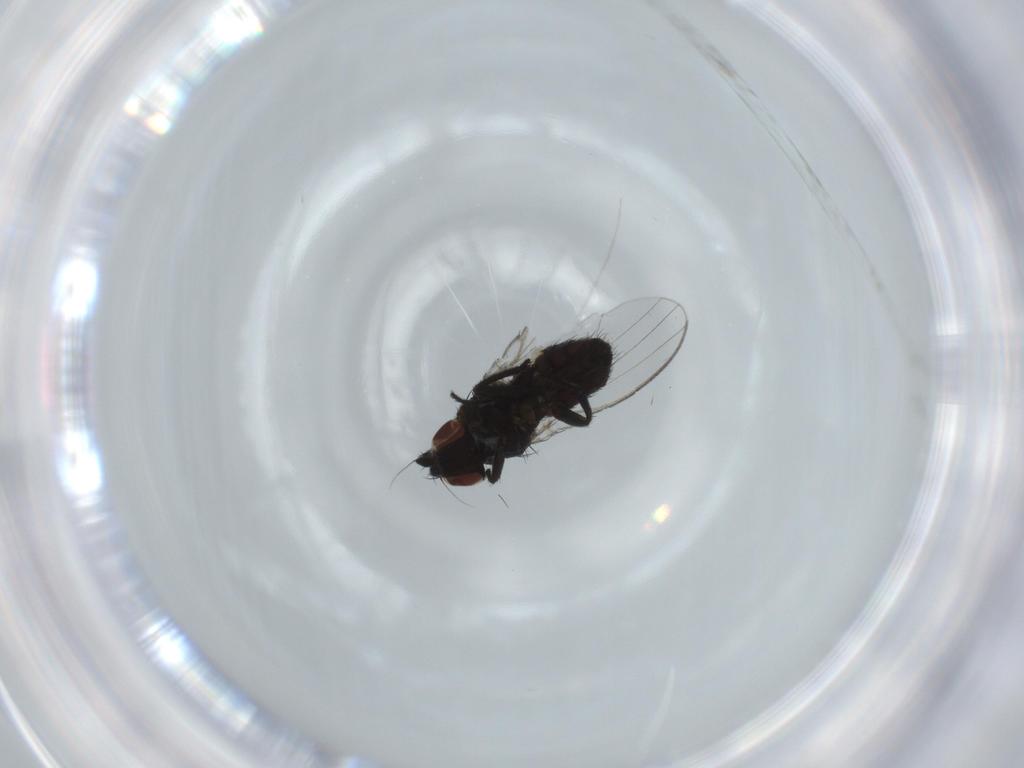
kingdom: Animalia
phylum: Arthropoda
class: Insecta
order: Diptera
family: Milichiidae
